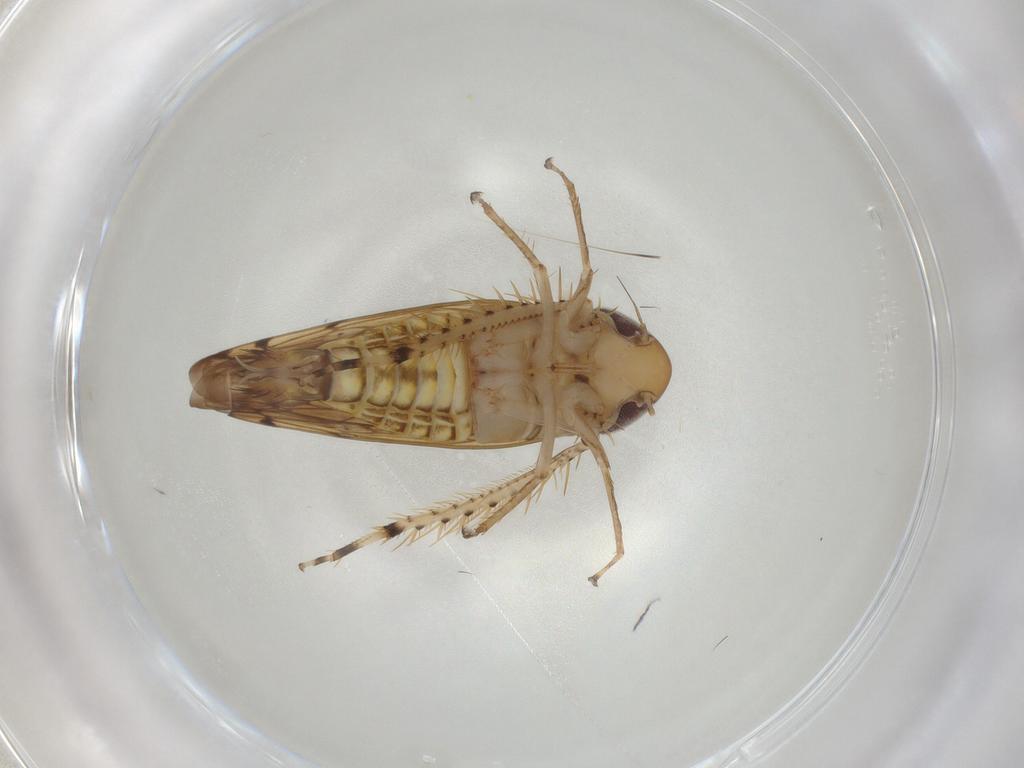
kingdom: Animalia
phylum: Arthropoda
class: Insecta
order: Hemiptera
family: Cicadellidae
